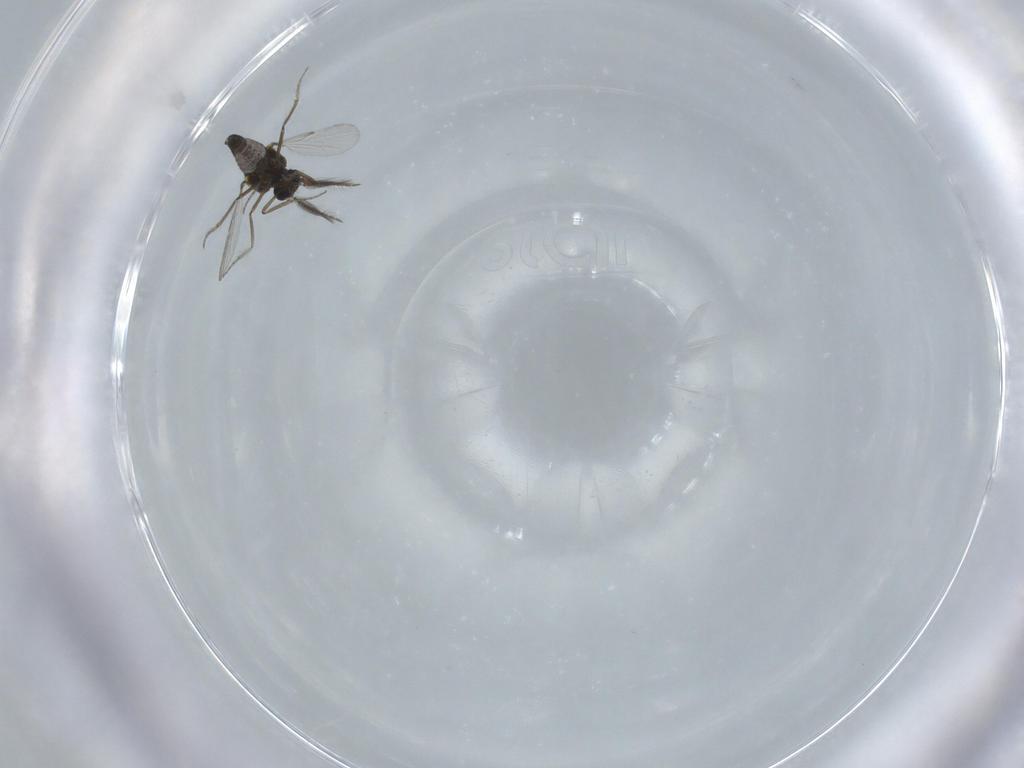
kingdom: Animalia
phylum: Arthropoda
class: Insecta
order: Diptera
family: Ceratopogonidae
